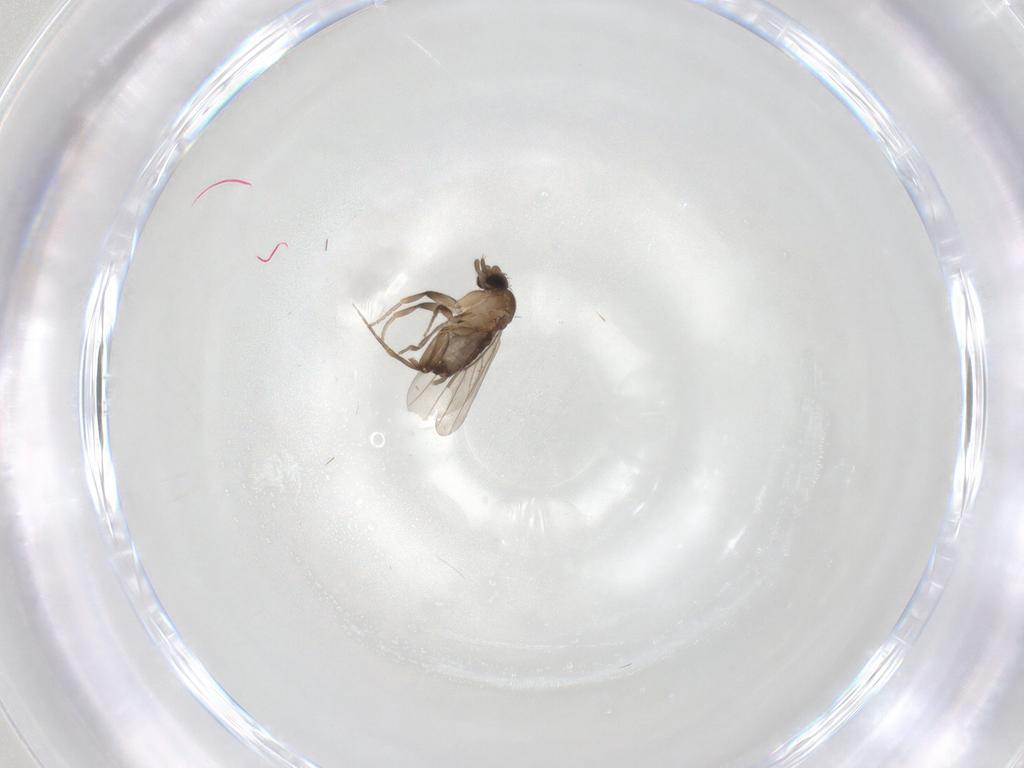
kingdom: Animalia
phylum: Arthropoda
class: Insecta
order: Diptera
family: Phoridae
